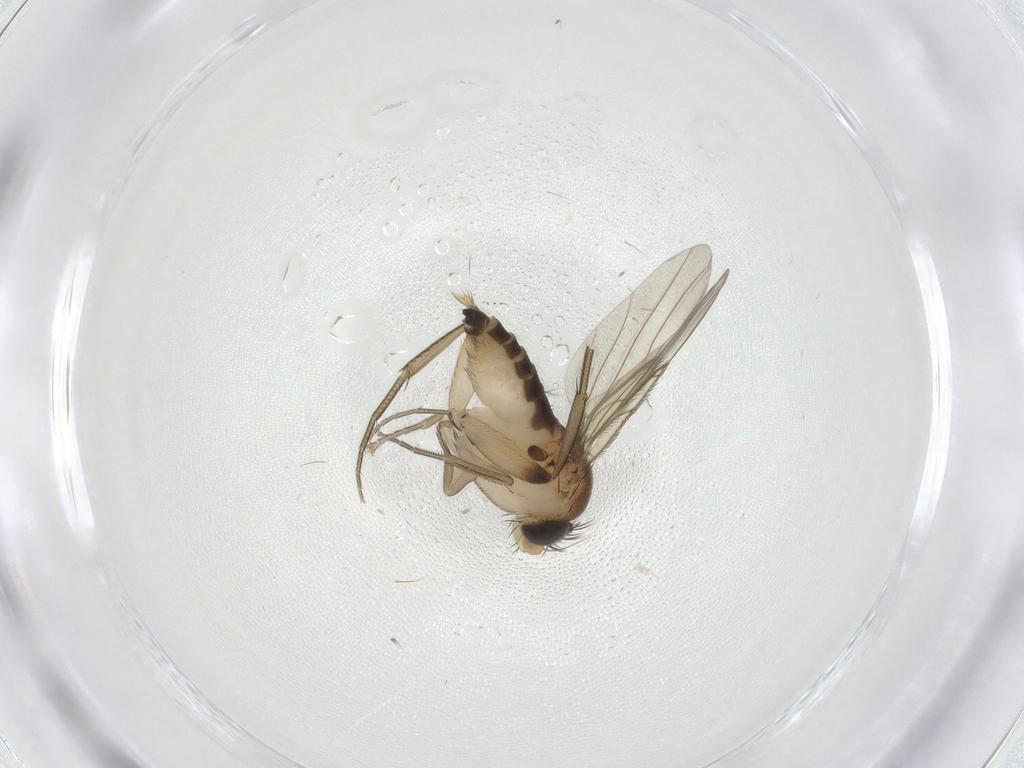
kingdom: Animalia
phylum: Arthropoda
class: Insecta
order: Diptera
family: Phoridae
